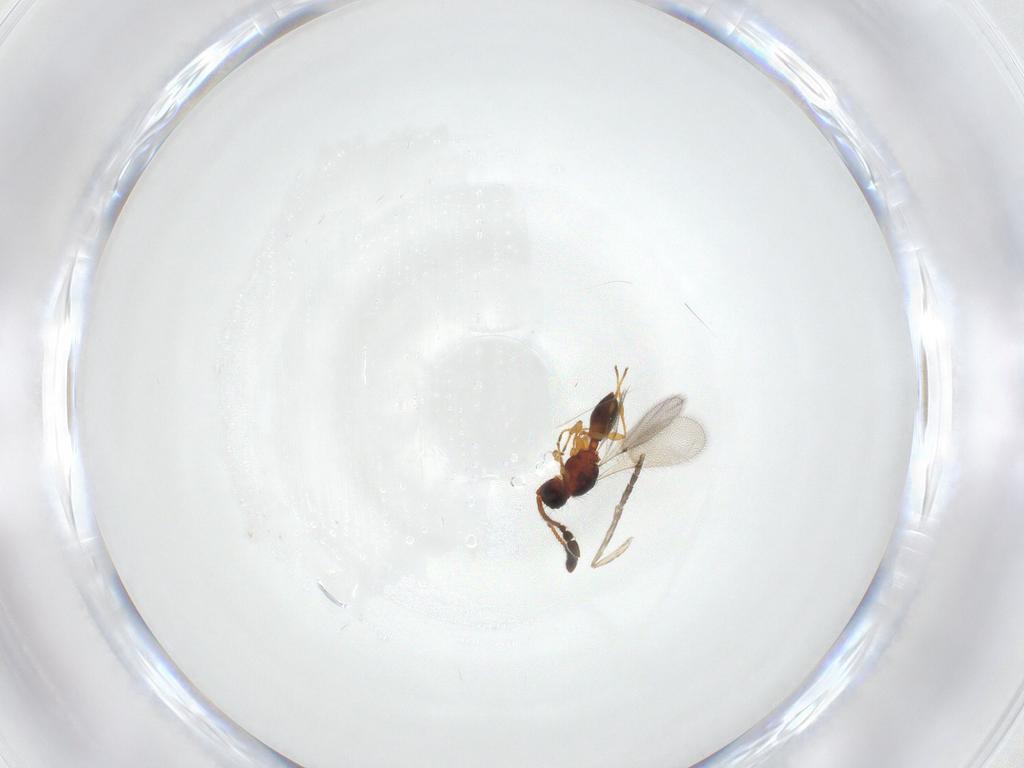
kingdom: Animalia
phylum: Arthropoda
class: Insecta
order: Hymenoptera
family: Diapriidae
